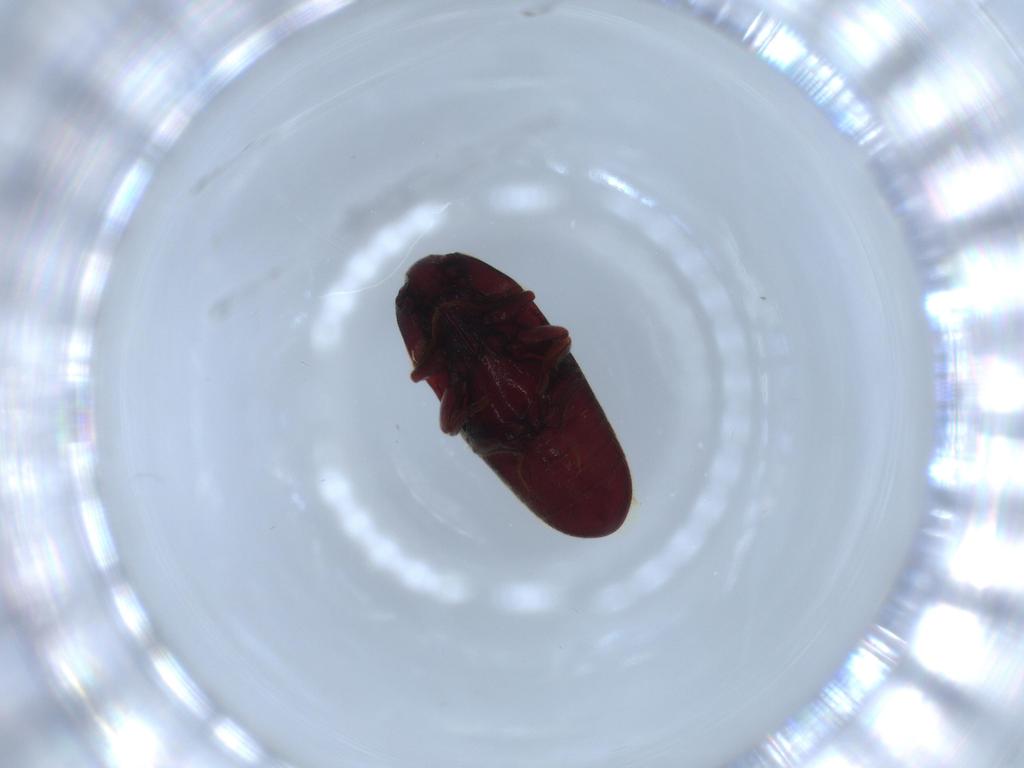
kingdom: Animalia
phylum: Arthropoda
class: Insecta
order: Coleoptera
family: Throscidae
